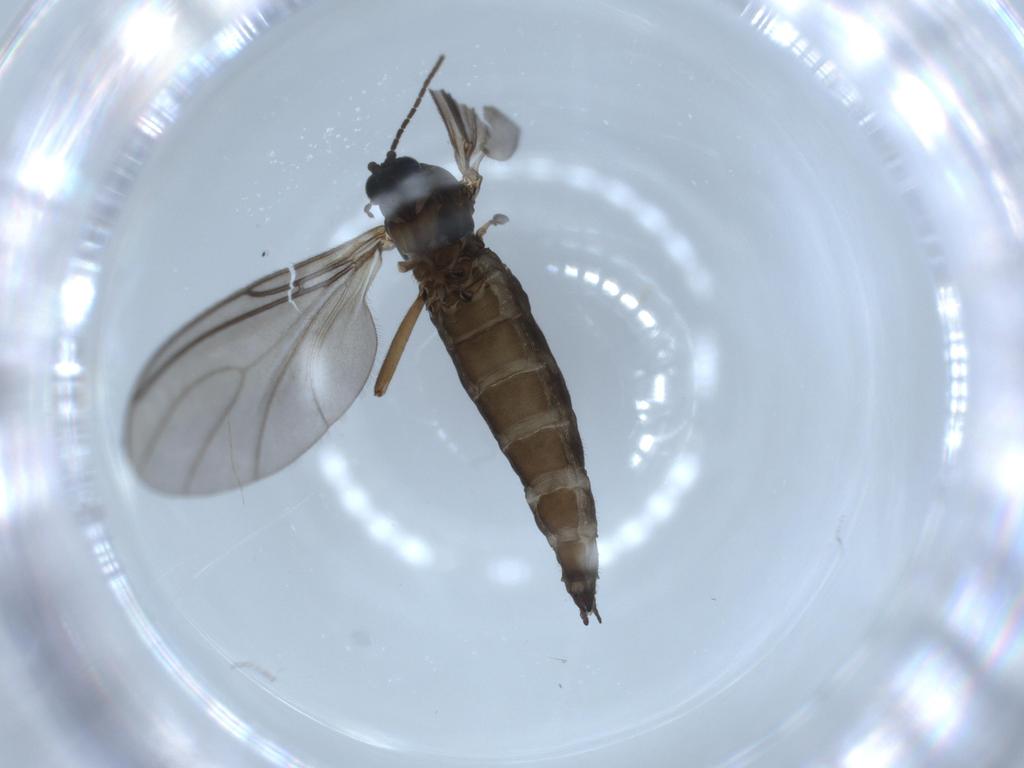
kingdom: Animalia
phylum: Arthropoda
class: Insecta
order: Diptera
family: Sciaridae
